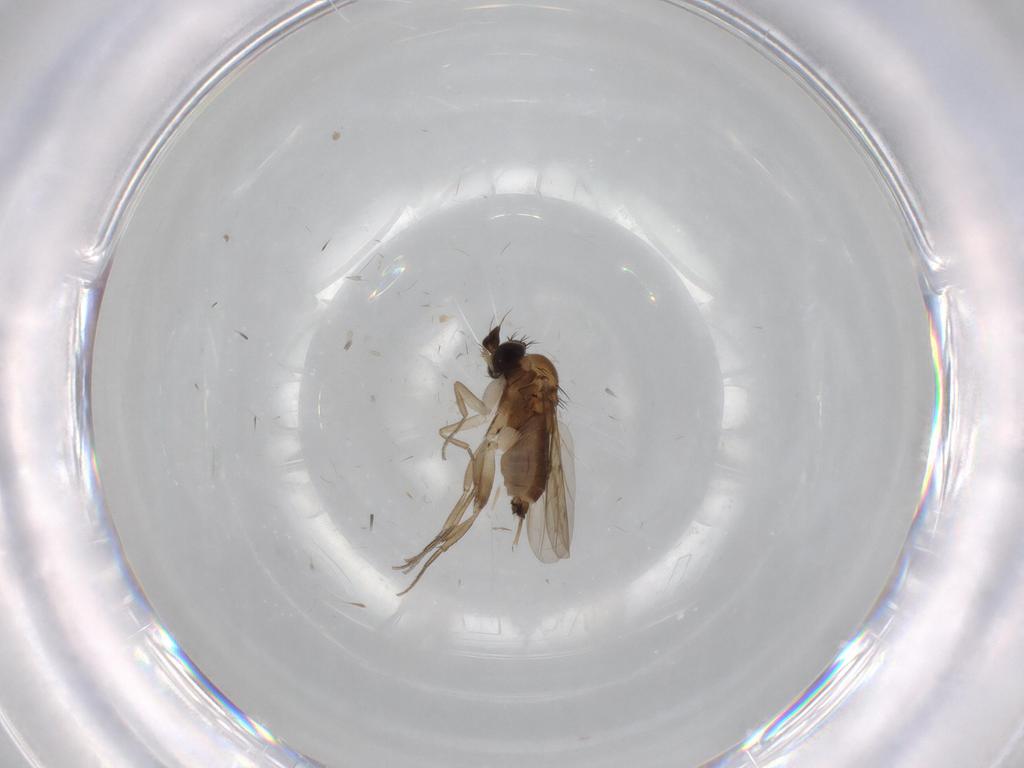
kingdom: Animalia
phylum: Arthropoda
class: Insecta
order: Diptera
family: Phoridae
